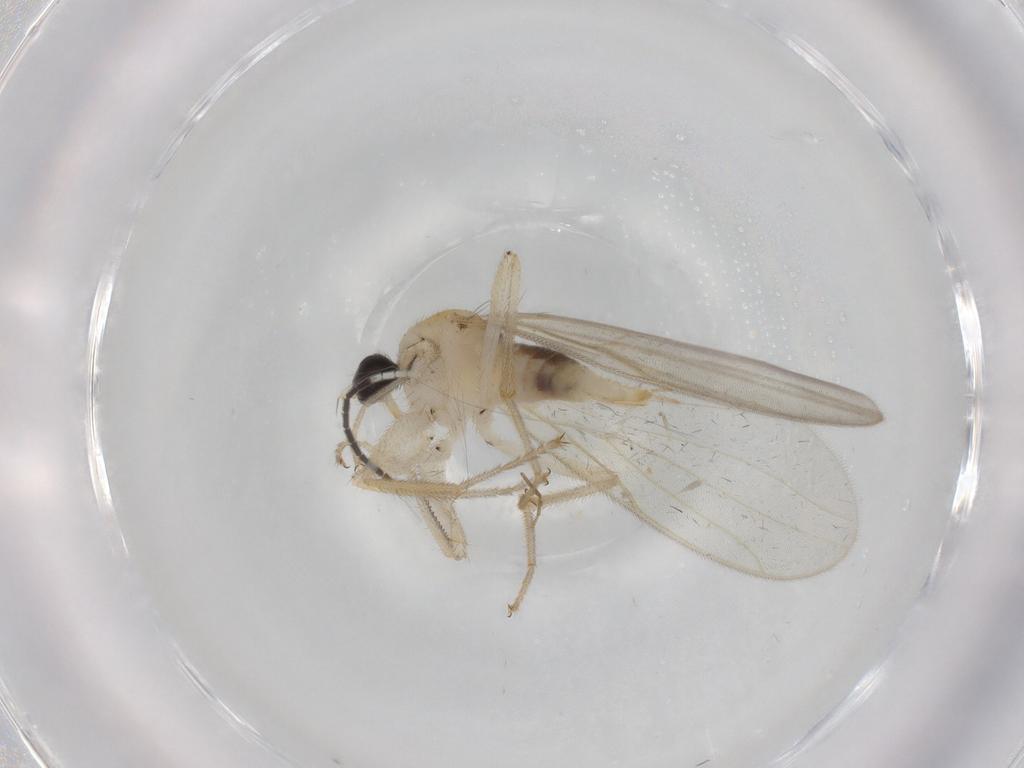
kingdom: Animalia
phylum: Arthropoda
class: Insecta
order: Diptera
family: Hybotidae
